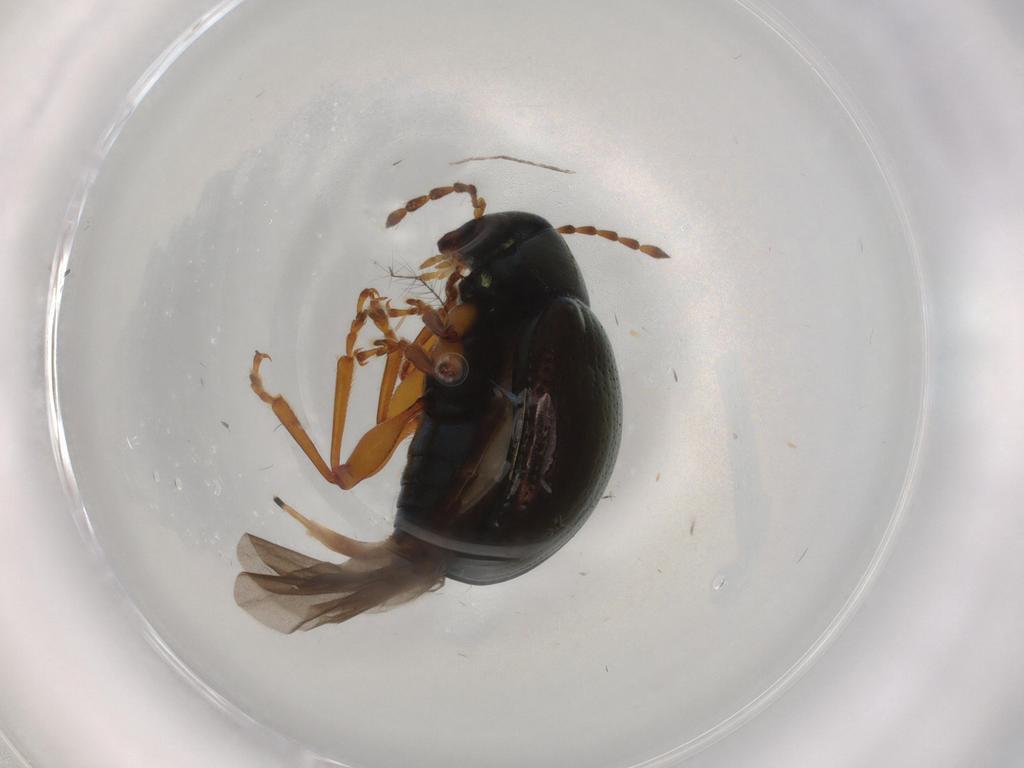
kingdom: Animalia
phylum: Arthropoda
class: Insecta
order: Coleoptera
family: Chrysomelidae
